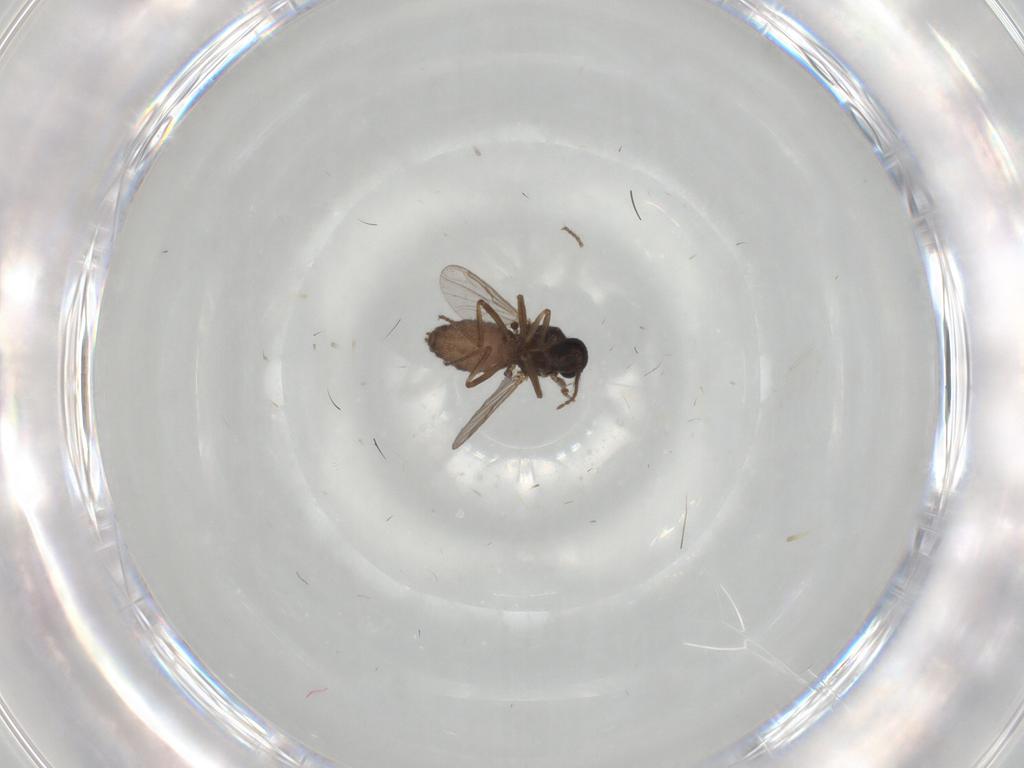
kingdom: Animalia
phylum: Arthropoda
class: Insecta
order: Diptera
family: Ceratopogonidae
